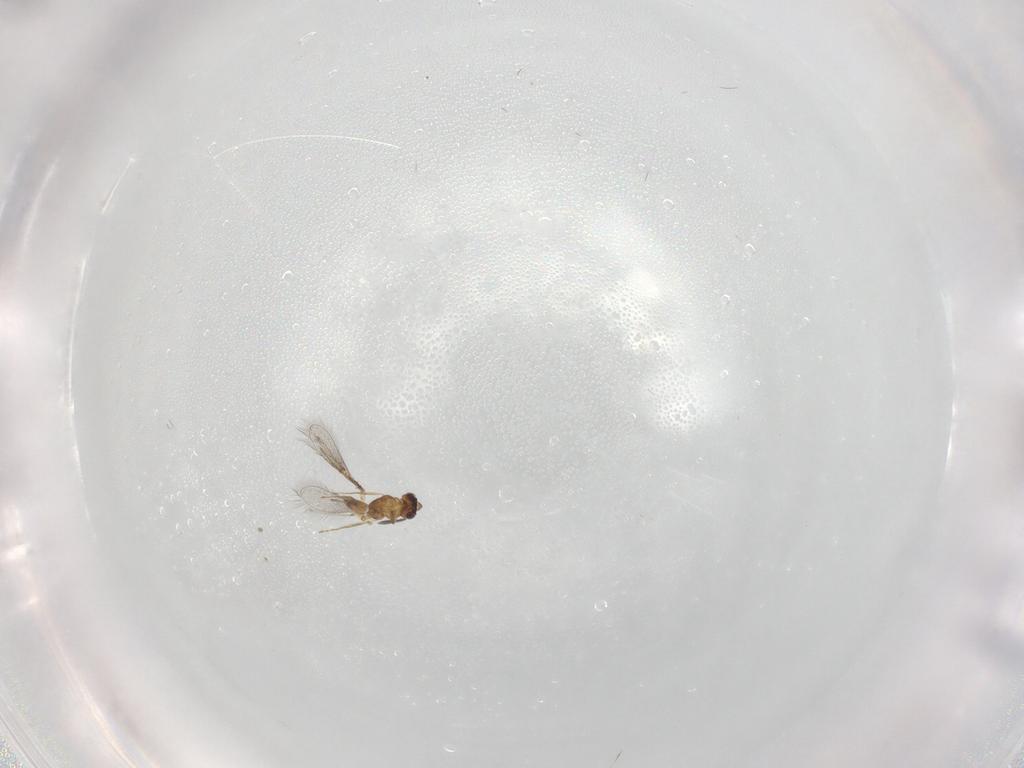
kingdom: Animalia
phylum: Arthropoda
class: Insecta
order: Hymenoptera
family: Mymaridae
